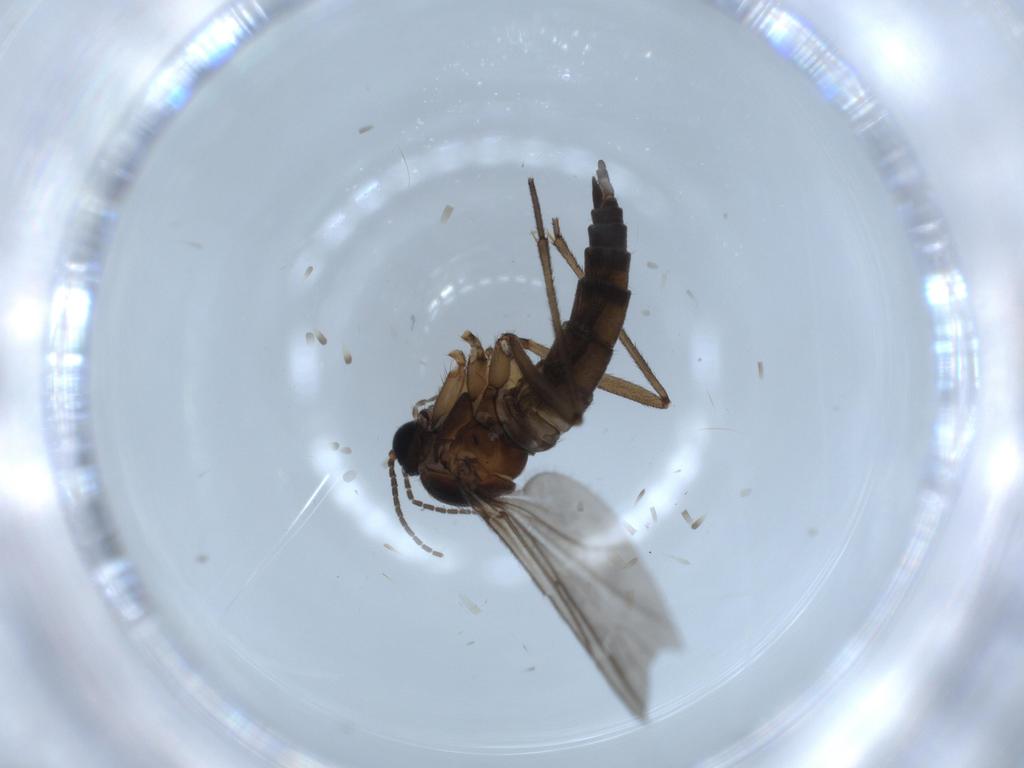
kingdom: Animalia
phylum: Arthropoda
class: Insecta
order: Diptera
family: Sciaridae
